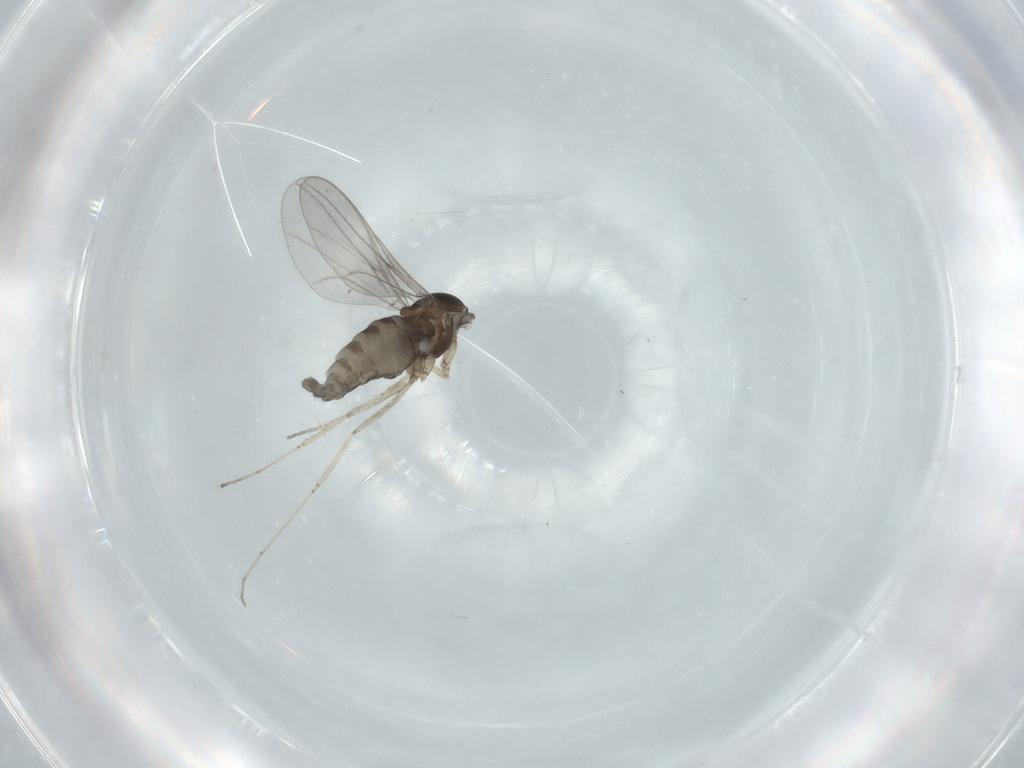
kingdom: Animalia
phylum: Arthropoda
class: Insecta
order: Diptera
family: Cecidomyiidae
